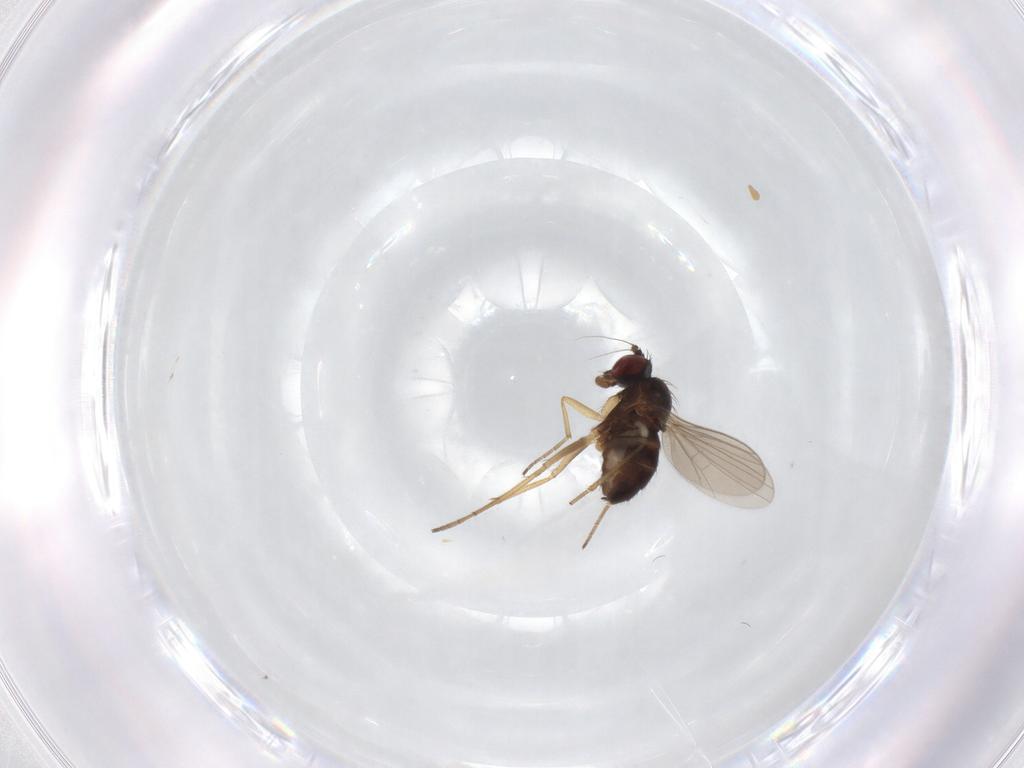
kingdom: Animalia
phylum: Arthropoda
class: Insecta
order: Diptera
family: Dolichopodidae
